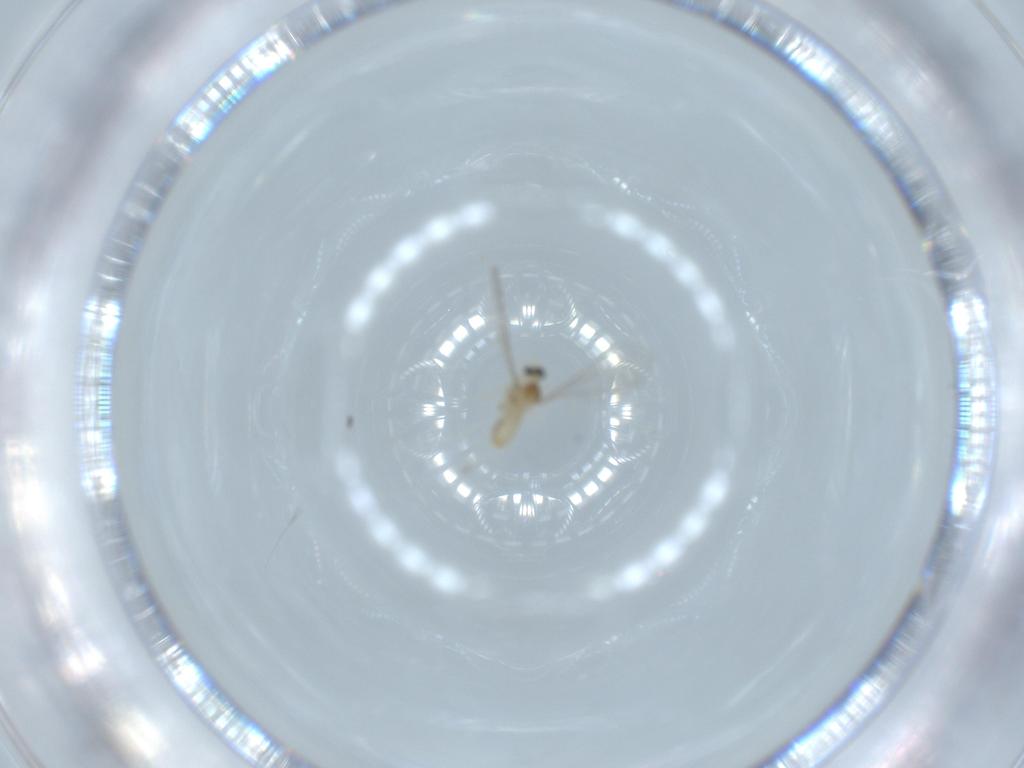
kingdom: Animalia
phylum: Arthropoda
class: Insecta
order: Diptera
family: Cecidomyiidae
